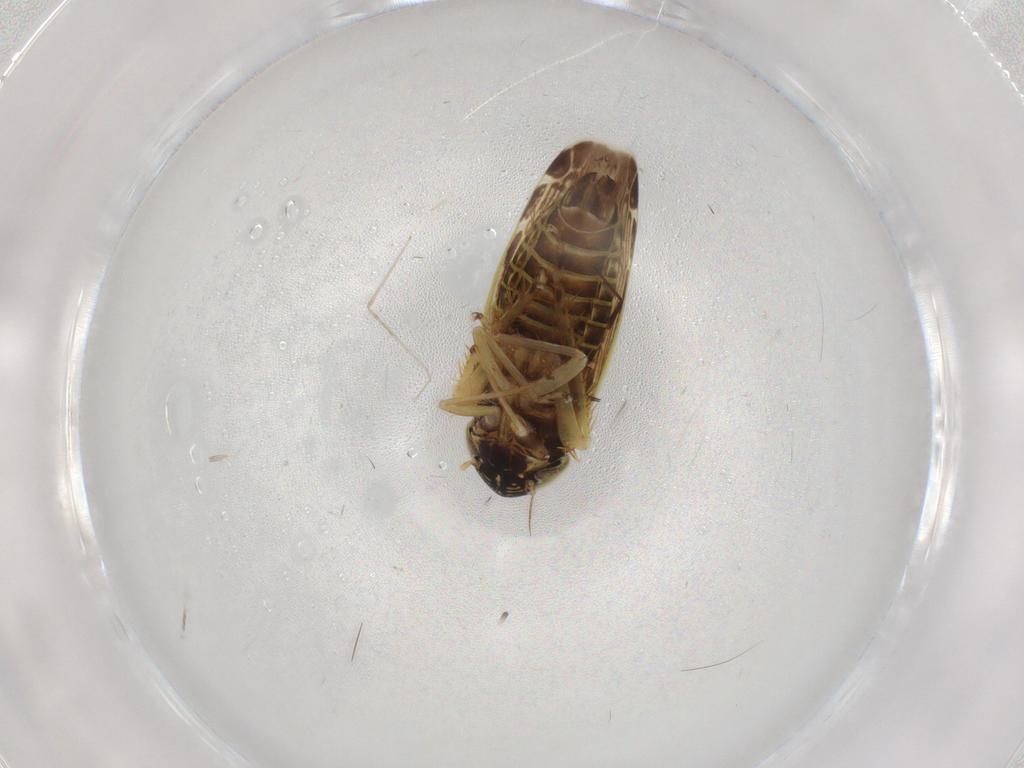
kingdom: Animalia
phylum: Arthropoda
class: Insecta
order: Hemiptera
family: Cicadellidae
